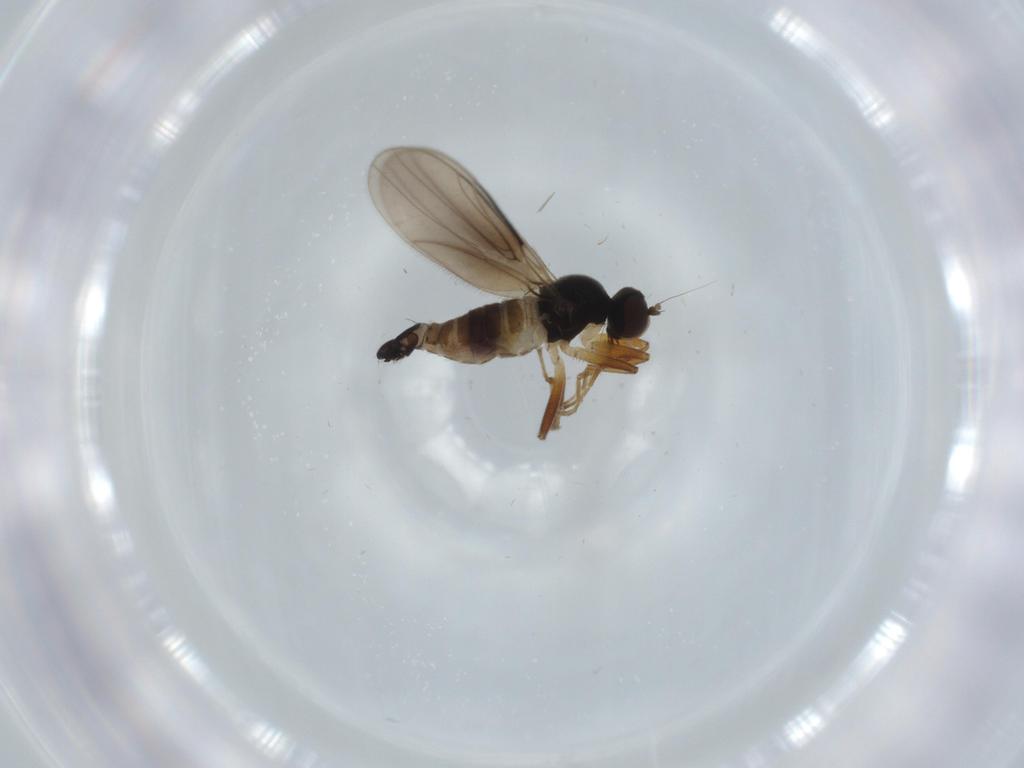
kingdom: Animalia
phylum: Arthropoda
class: Insecta
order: Diptera
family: Hybotidae
